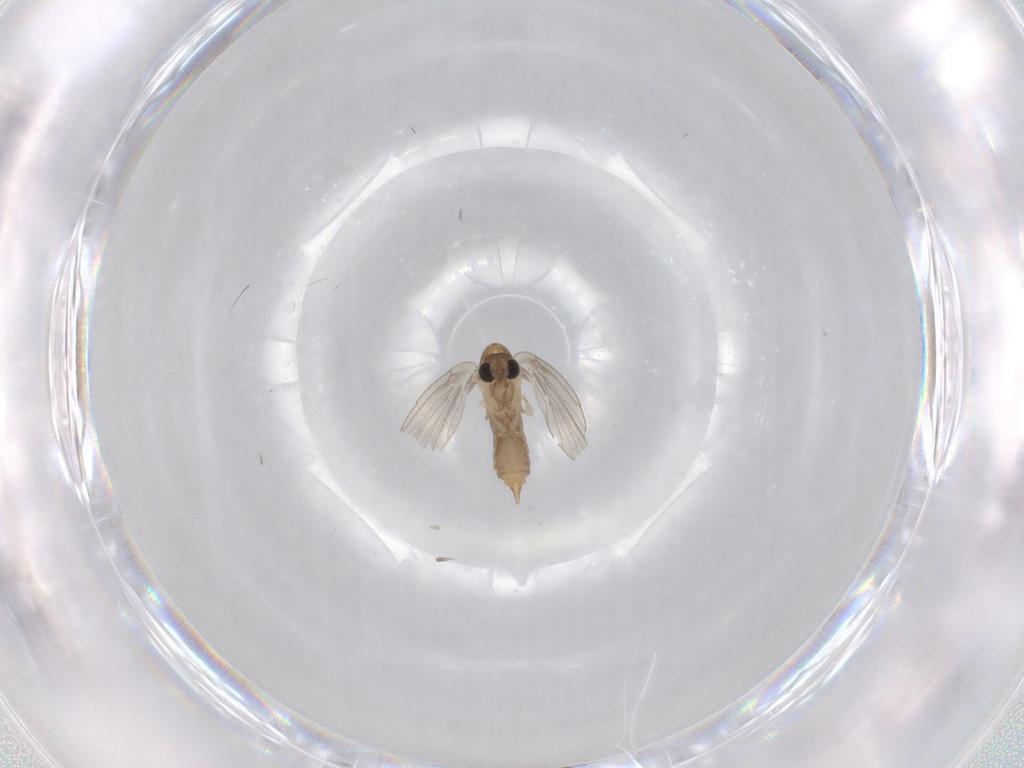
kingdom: Animalia
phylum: Arthropoda
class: Insecta
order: Diptera
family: Psychodidae
